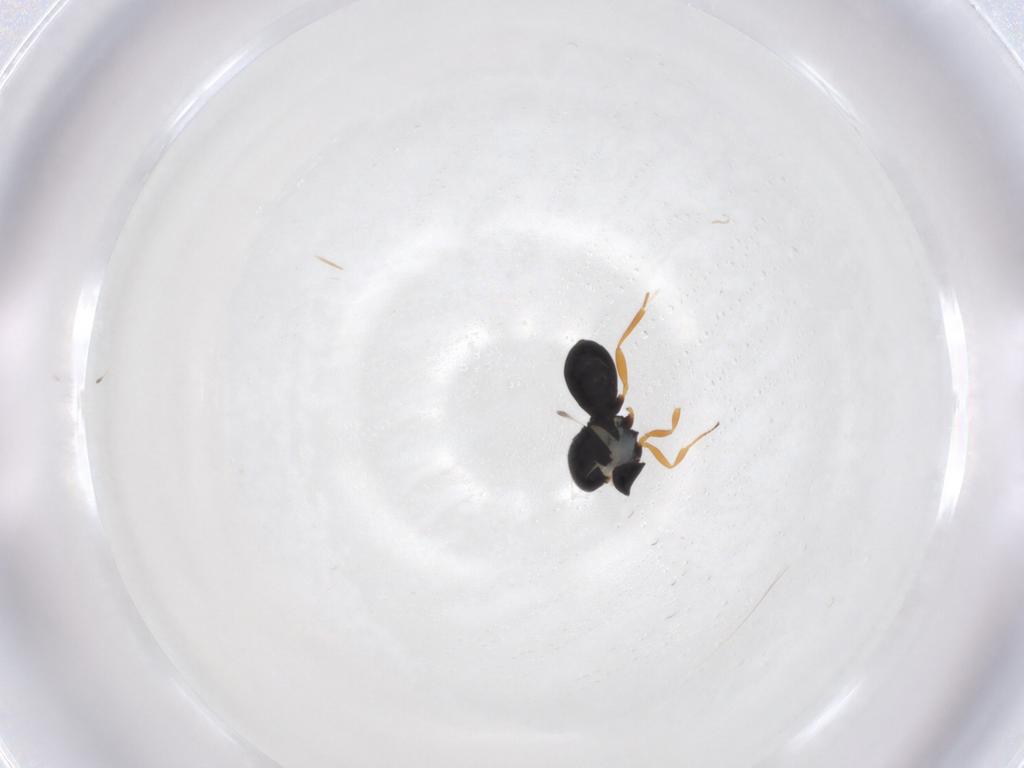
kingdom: Animalia
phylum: Arthropoda
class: Insecta
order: Hymenoptera
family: Scelionidae
